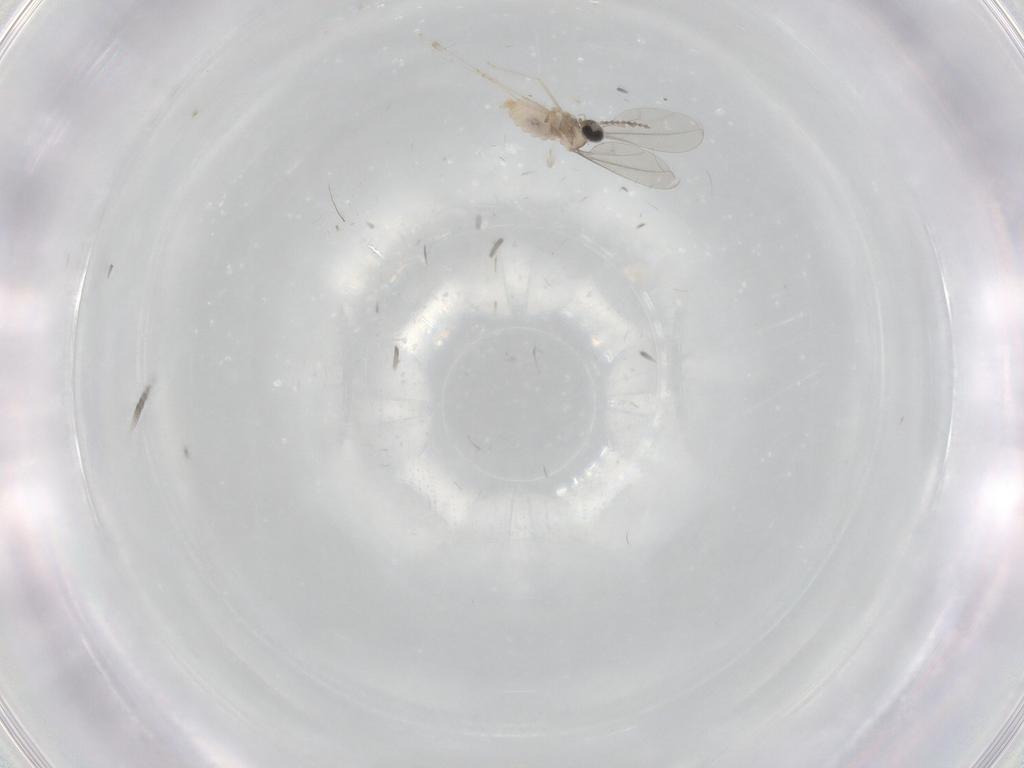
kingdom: Animalia
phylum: Arthropoda
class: Insecta
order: Diptera
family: Cecidomyiidae
